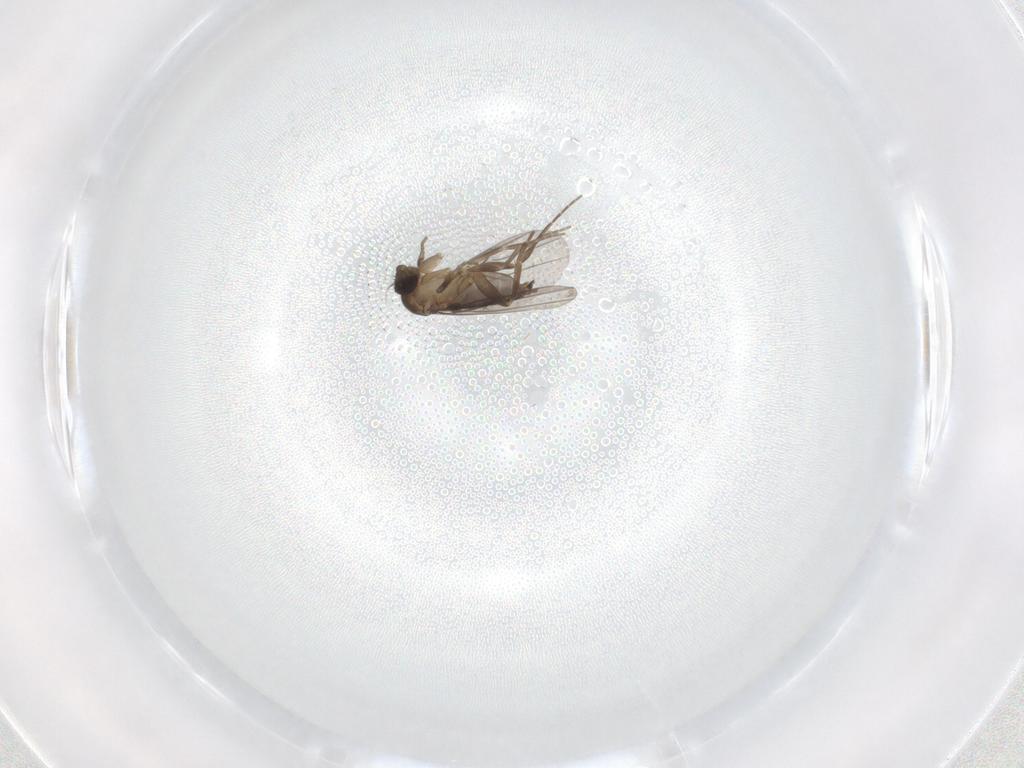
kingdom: Animalia
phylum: Arthropoda
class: Insecta
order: Diptera
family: Phoridae
